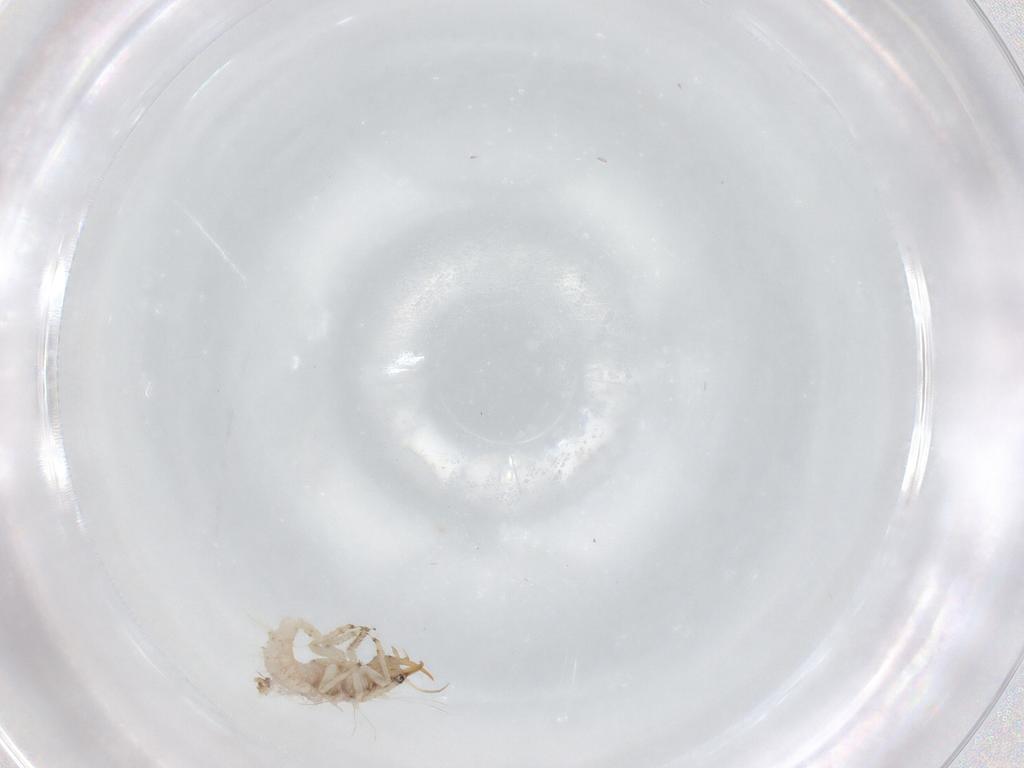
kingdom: Animalia
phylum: Arthropoda
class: Insecta
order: Neuroptera
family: Chrysopidae
